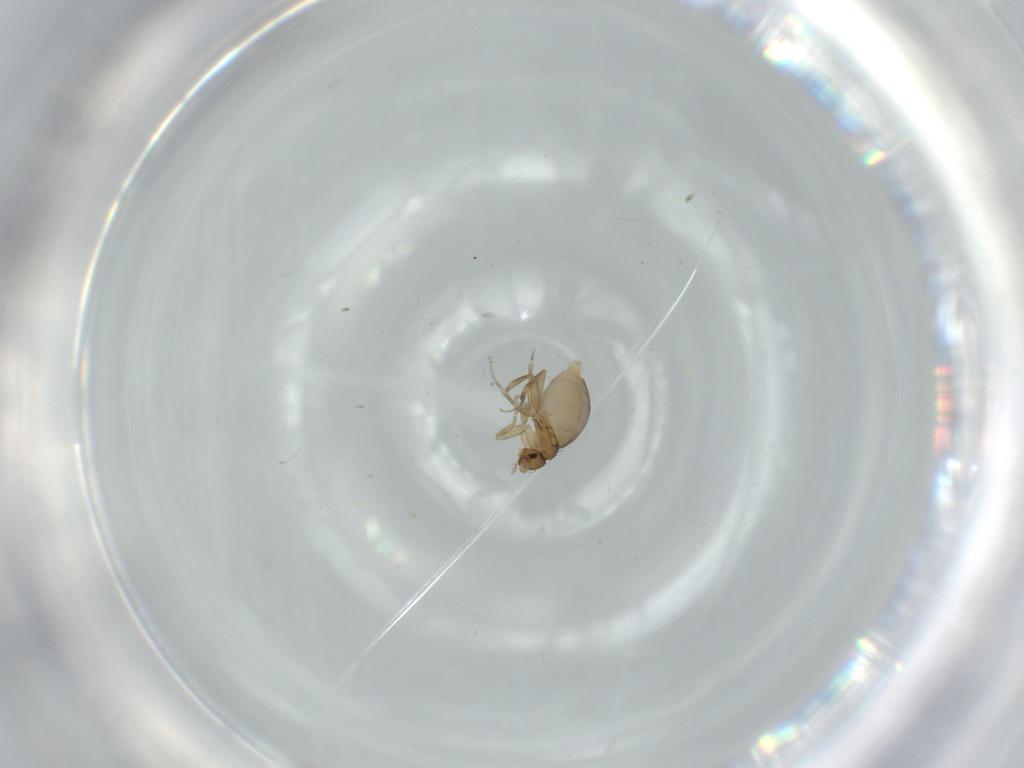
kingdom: Animalia
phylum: Arthropoda
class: Insecta
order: Diptera
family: Phoridae
